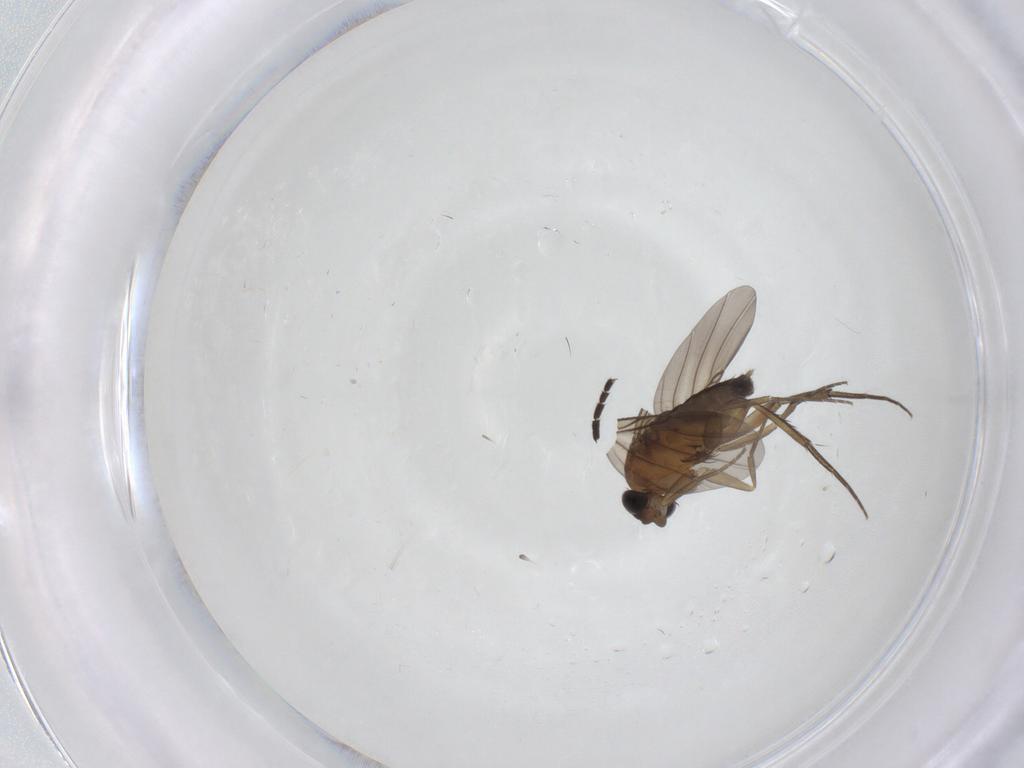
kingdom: Animalia
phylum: Arthropoda
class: Insecta
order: Diptera
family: Phoridae
